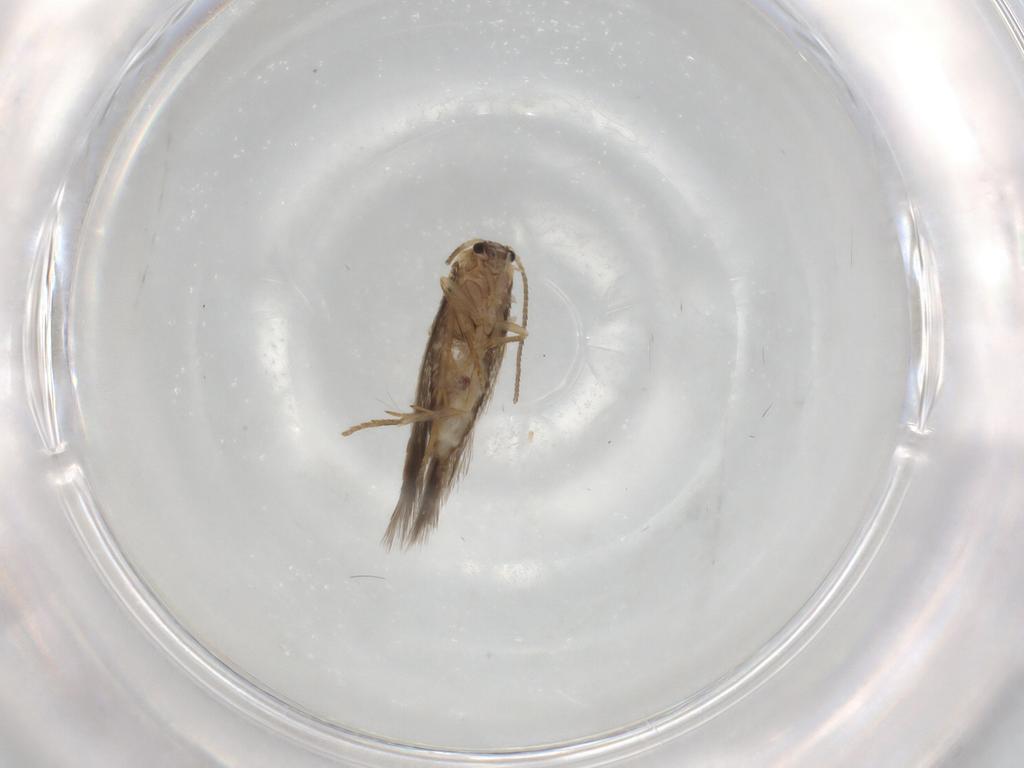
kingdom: Animalia
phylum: Arthropoda
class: Insecta
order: Lepidoptera
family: Nepticulidae
